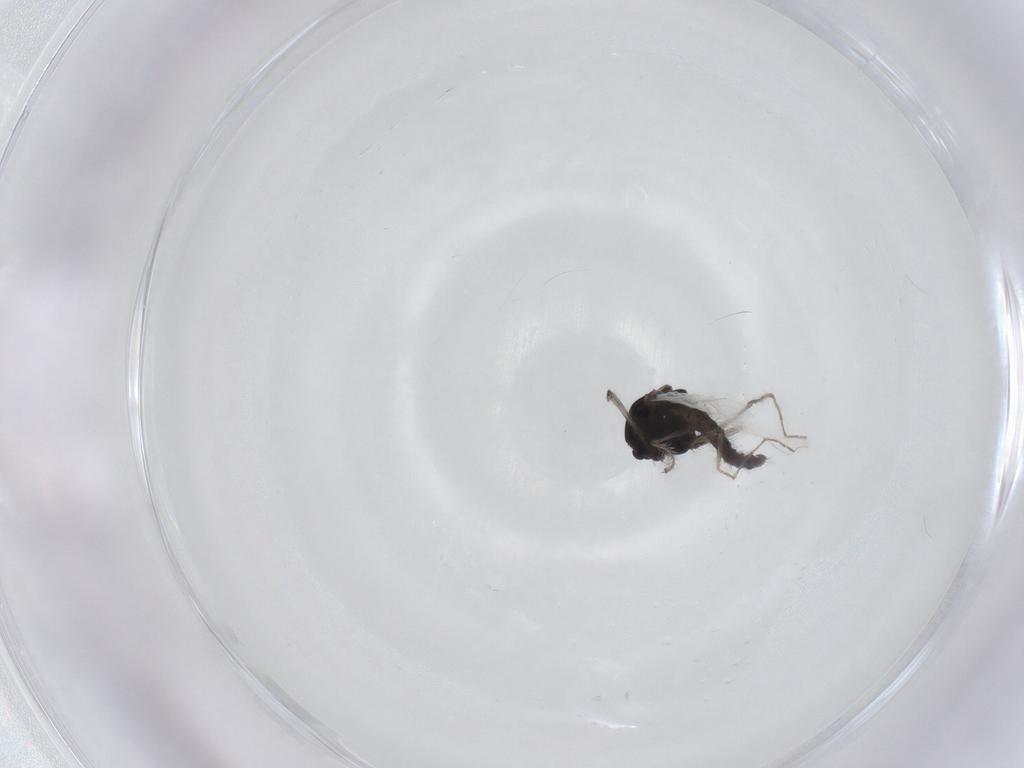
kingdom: Animalia
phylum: Arthropoda
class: Insecta
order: Diptera
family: Chironomidae
